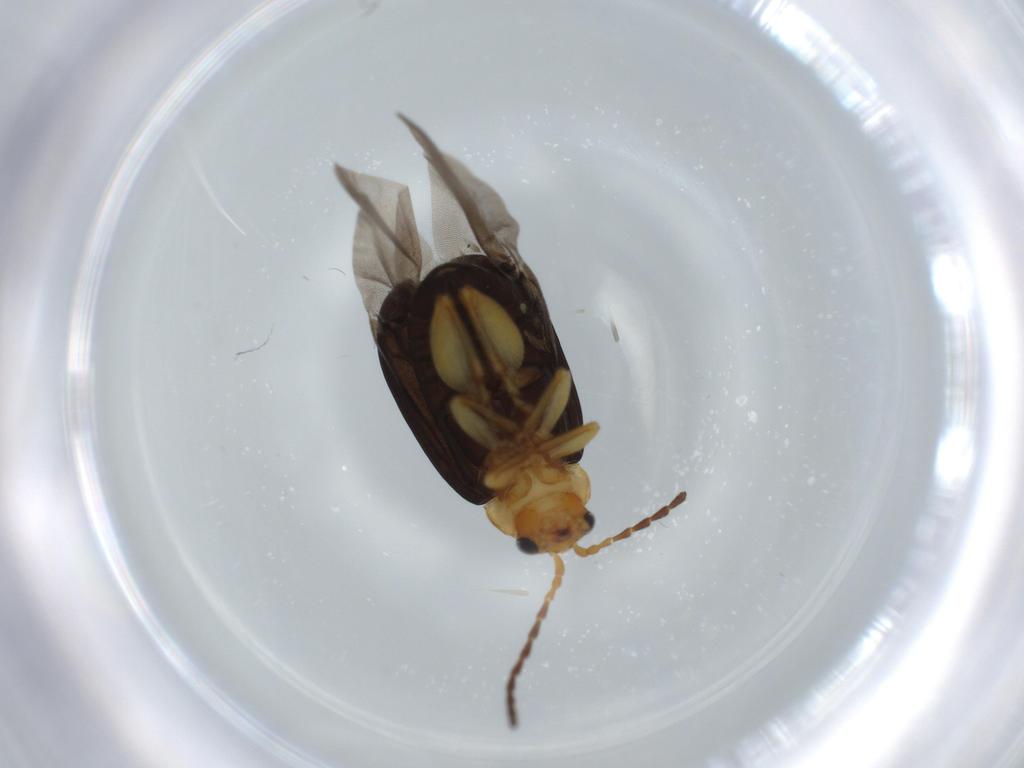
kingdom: Animalia
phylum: Arthropoda
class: Insecta
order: Coleoptera
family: Chrysomelidae
